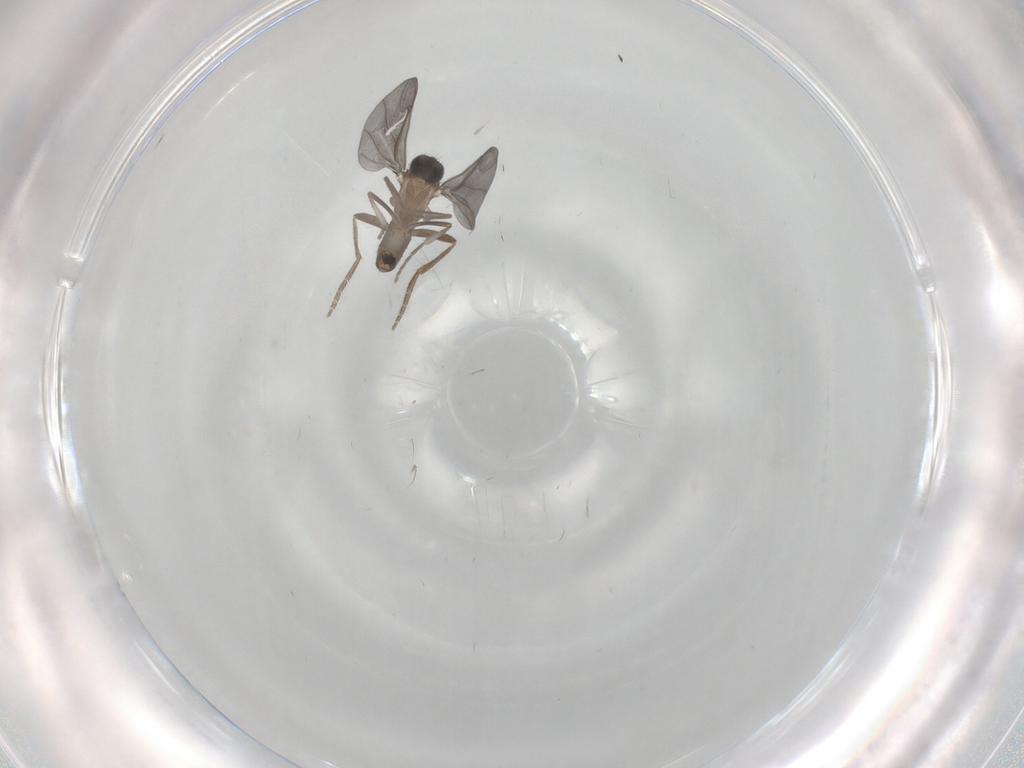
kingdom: Animalia
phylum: Arthropoda
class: Insecta
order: Diptera
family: Phoridae
